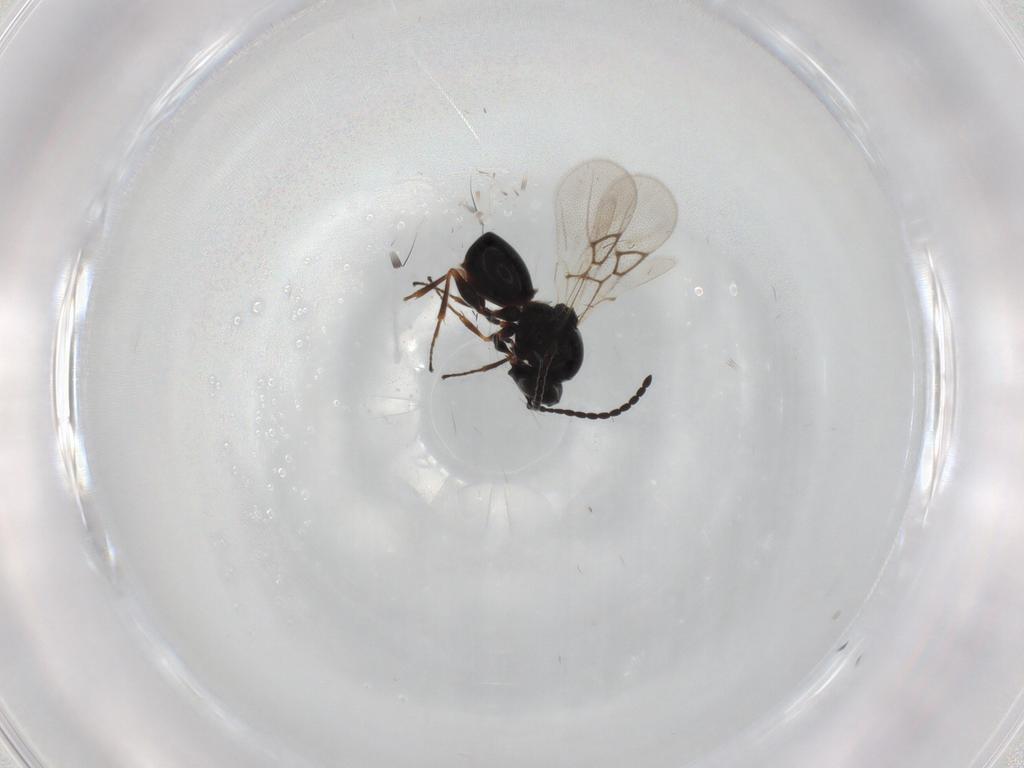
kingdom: Animalia
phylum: Arthropoda
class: Insecta
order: Hymenoptera
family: Figitidae
